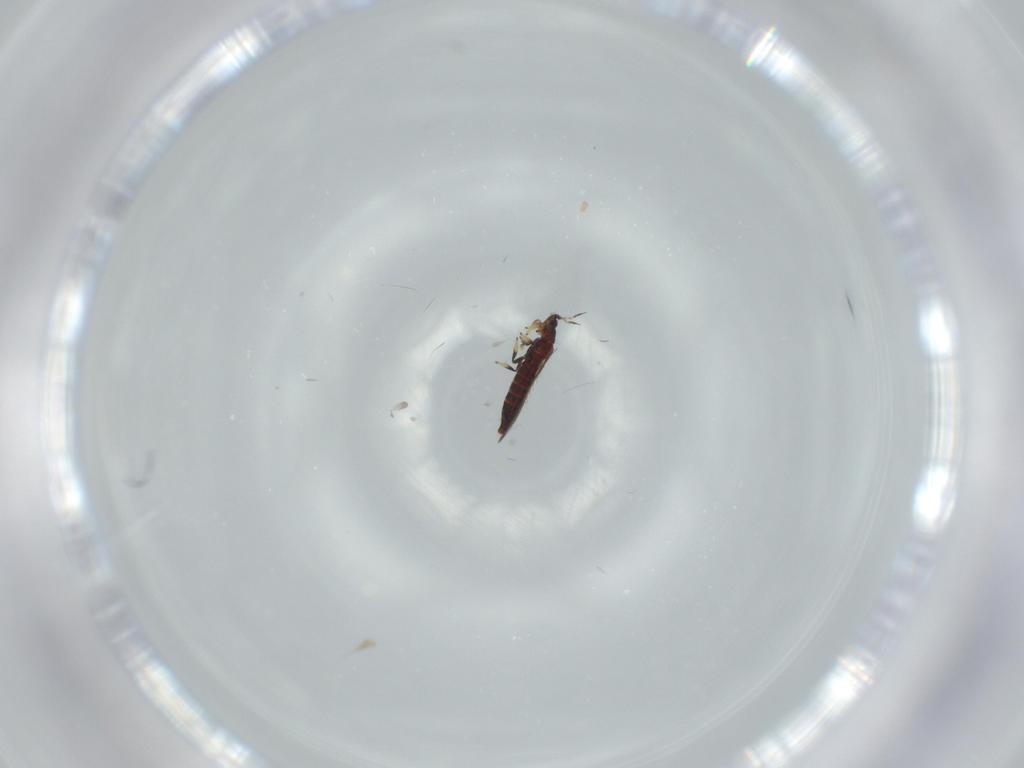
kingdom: Animalia
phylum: Arthropoda
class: Insecta
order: Thysanoptera
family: Thripidae
